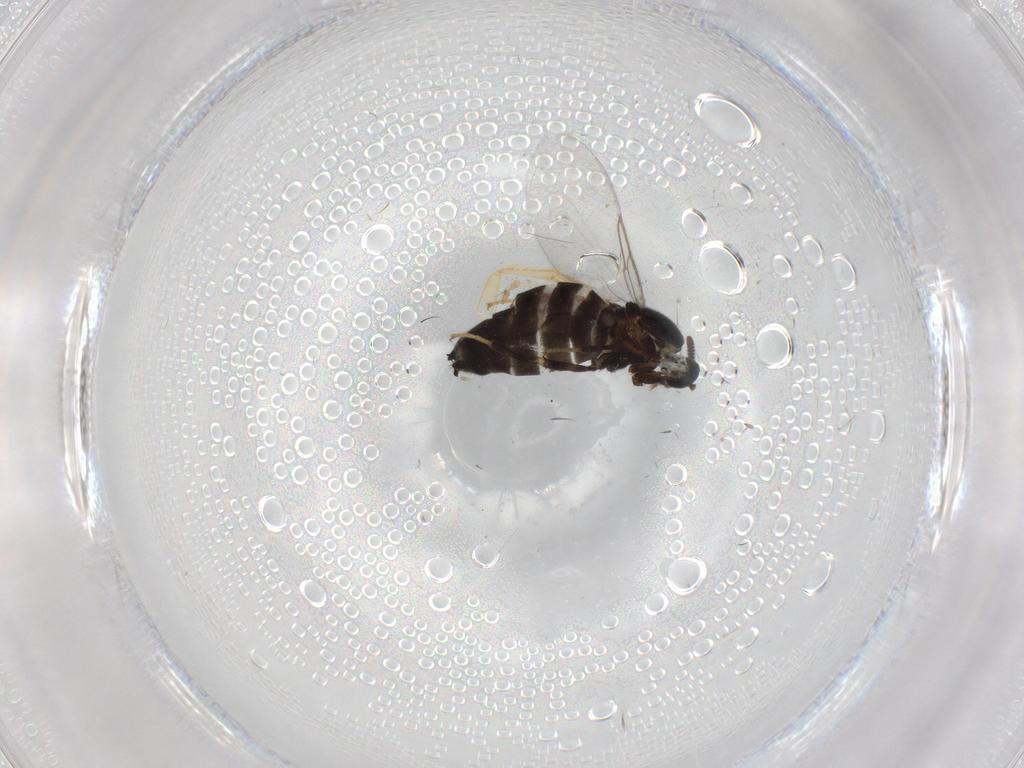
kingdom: Animalia
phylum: Arthropoda
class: Insecta
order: Diptera
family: Scatopsidae
